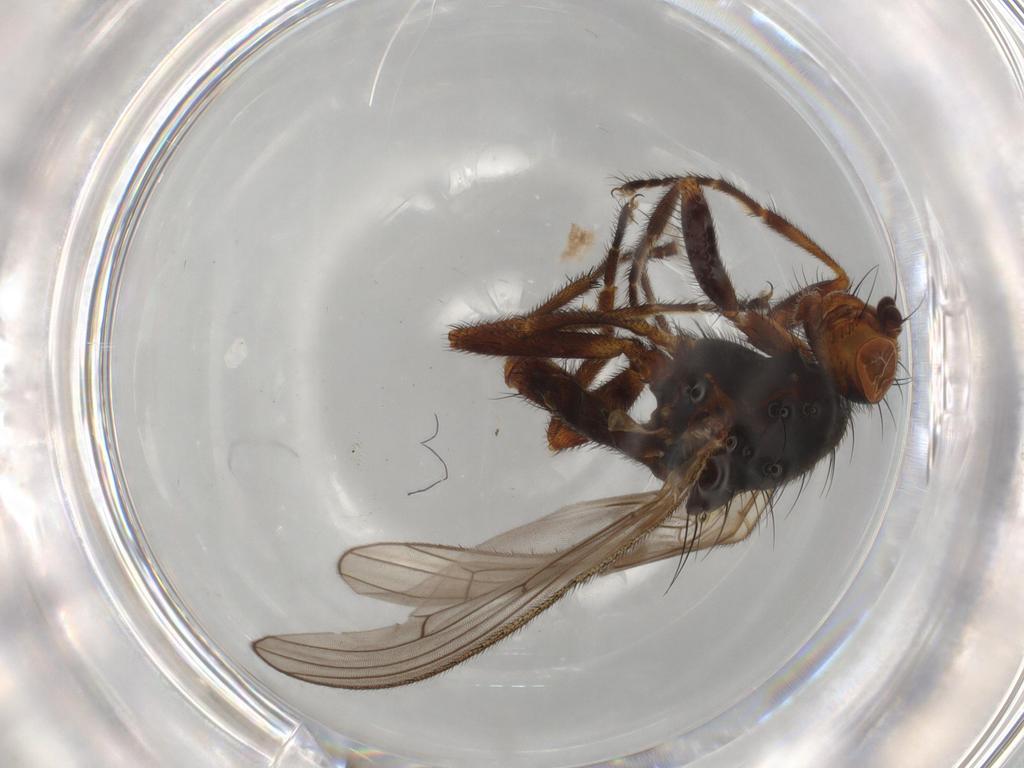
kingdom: Animalia
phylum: Arthropoda
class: Insecta
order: Diptera
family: Heleomyzidae
